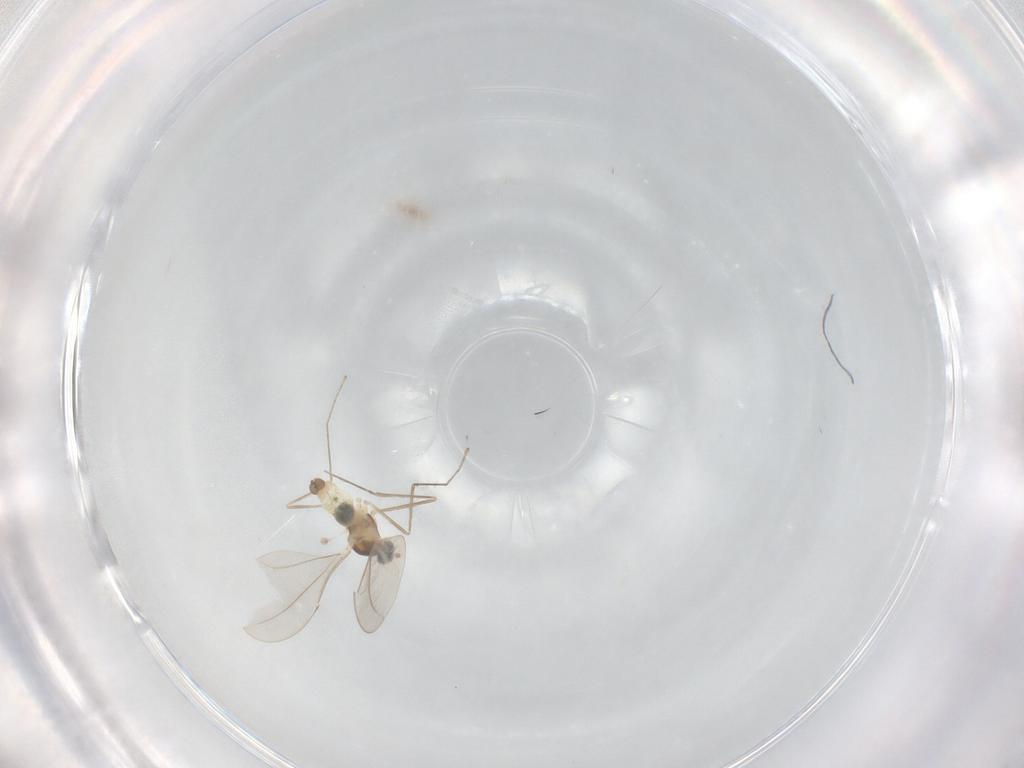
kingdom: Animalia
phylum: Arthropoda
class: Insecta
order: Diptera
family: Cecidomyiidae
